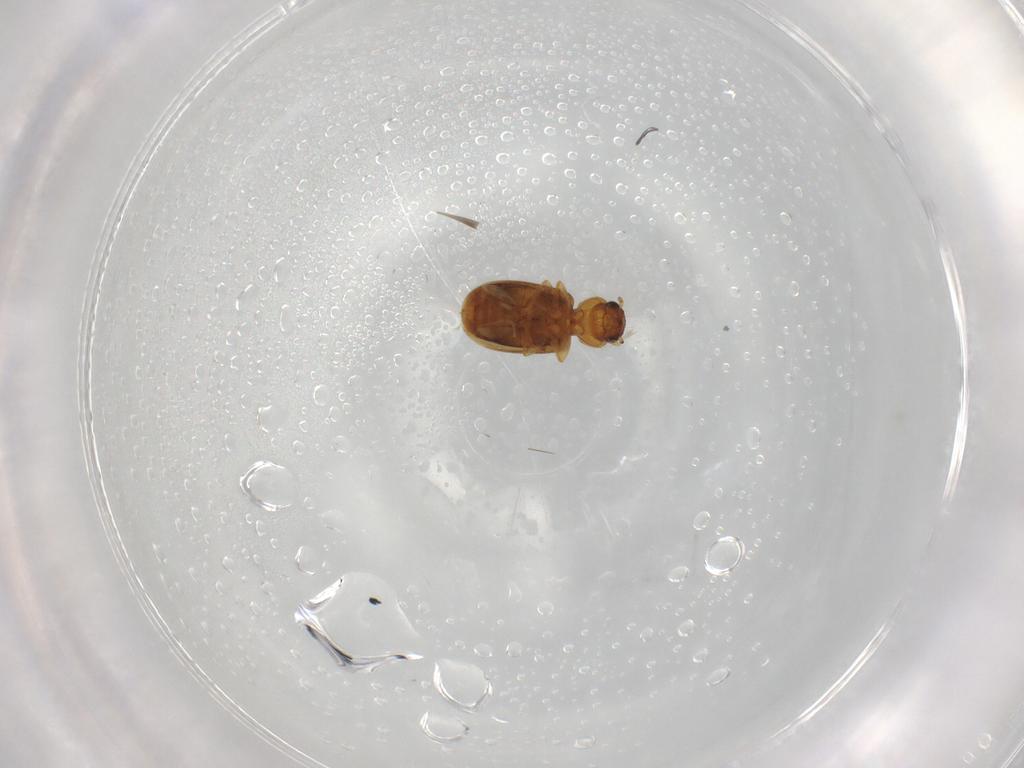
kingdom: Animalia
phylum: Arthropoda
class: Insecta
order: Coleoptera
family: Carabidae
